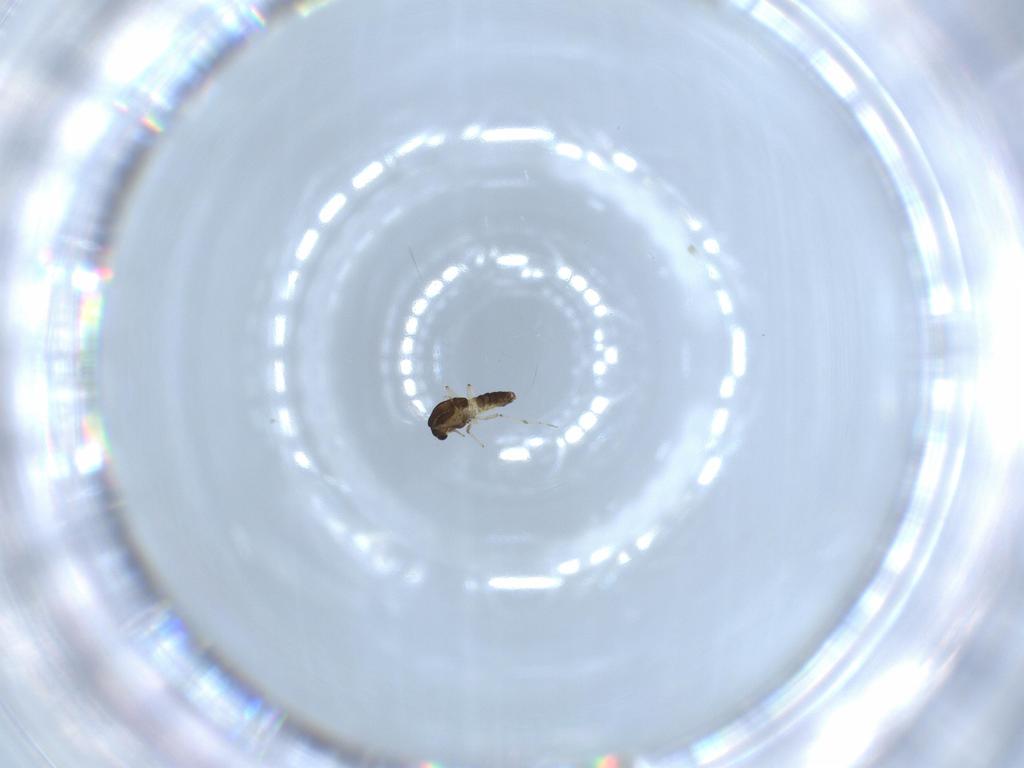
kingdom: Animalia
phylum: Arthropoda
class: Insecta
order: Diptera
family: Chironomidae
